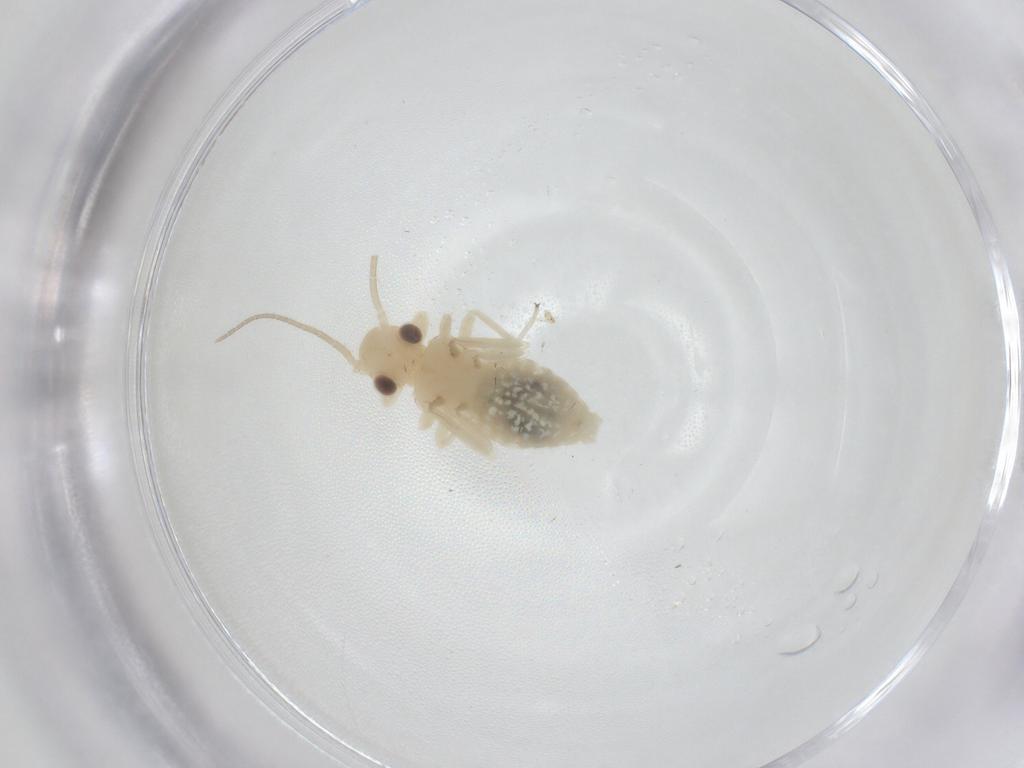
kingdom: Animalia
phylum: Arthropoda
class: Insecta
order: Psocodea
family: Caeciliusidae
